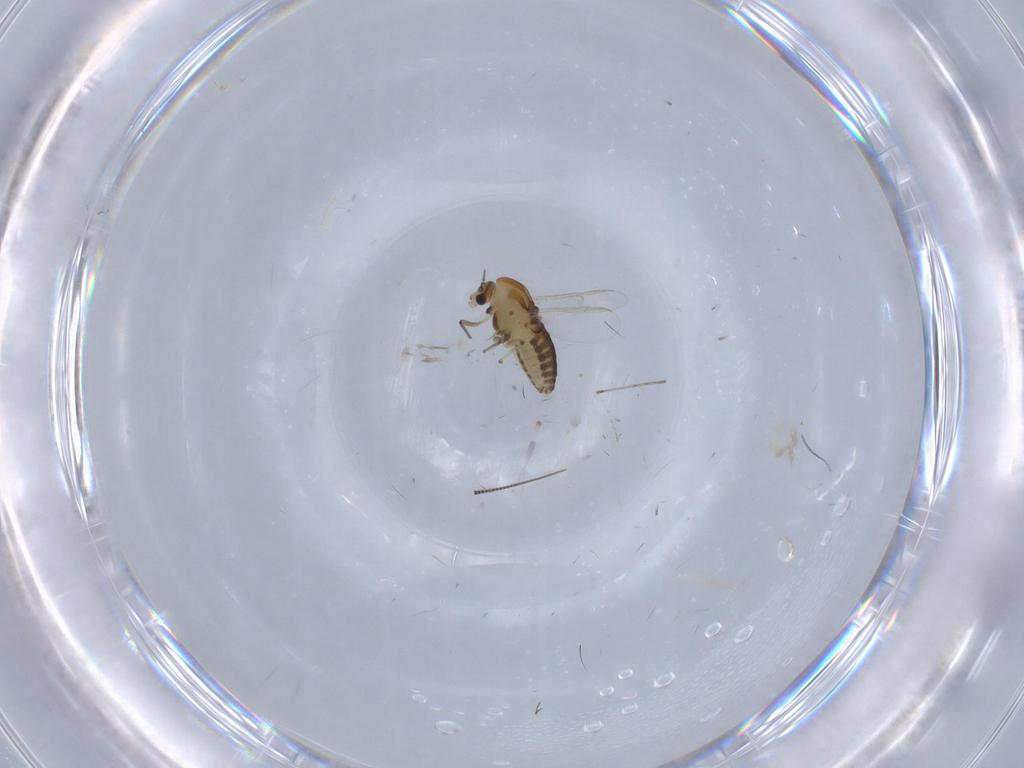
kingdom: Animalia
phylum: Arthropoda
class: Insecta
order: Diptera
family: Chironomidae
